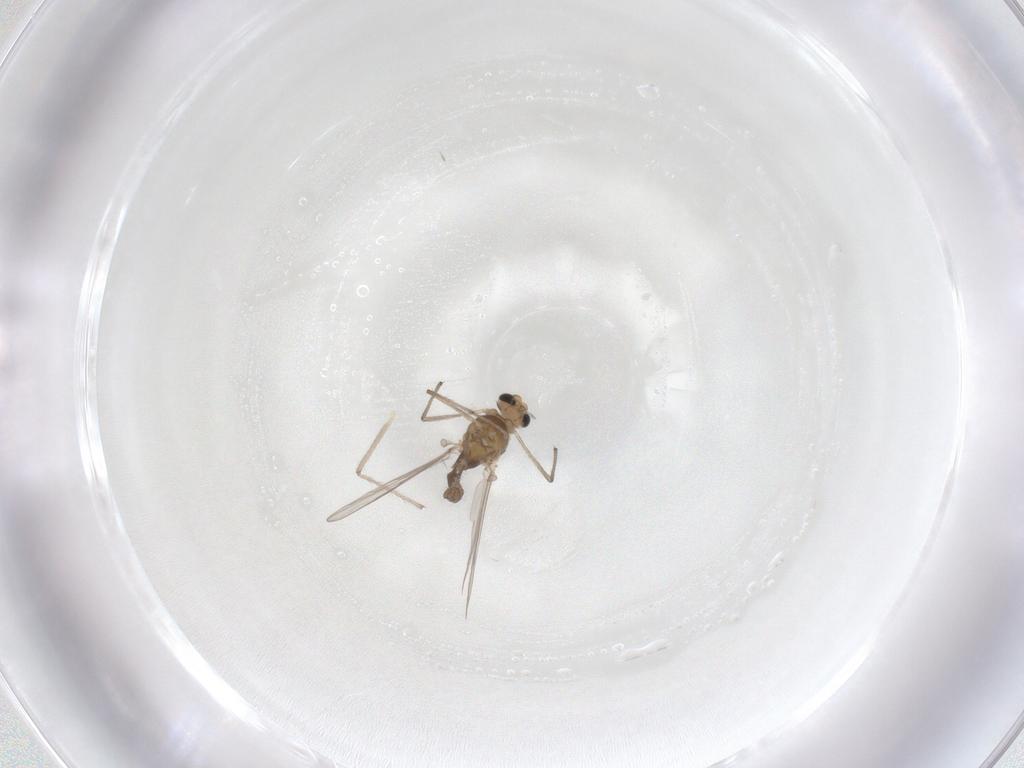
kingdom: Animalia
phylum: Arthropoda
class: Insecta
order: Diptera
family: Chironomidae
